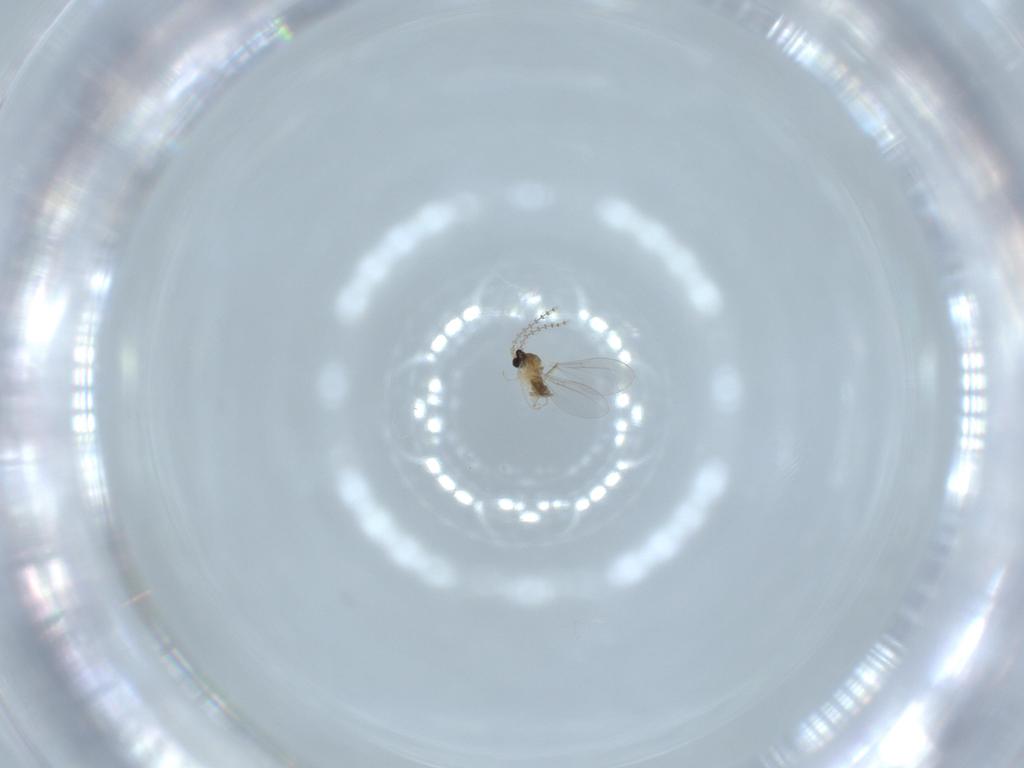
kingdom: Animalia
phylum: Arthropoda
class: Insecta
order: Diptera
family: Cecidomyiidae
